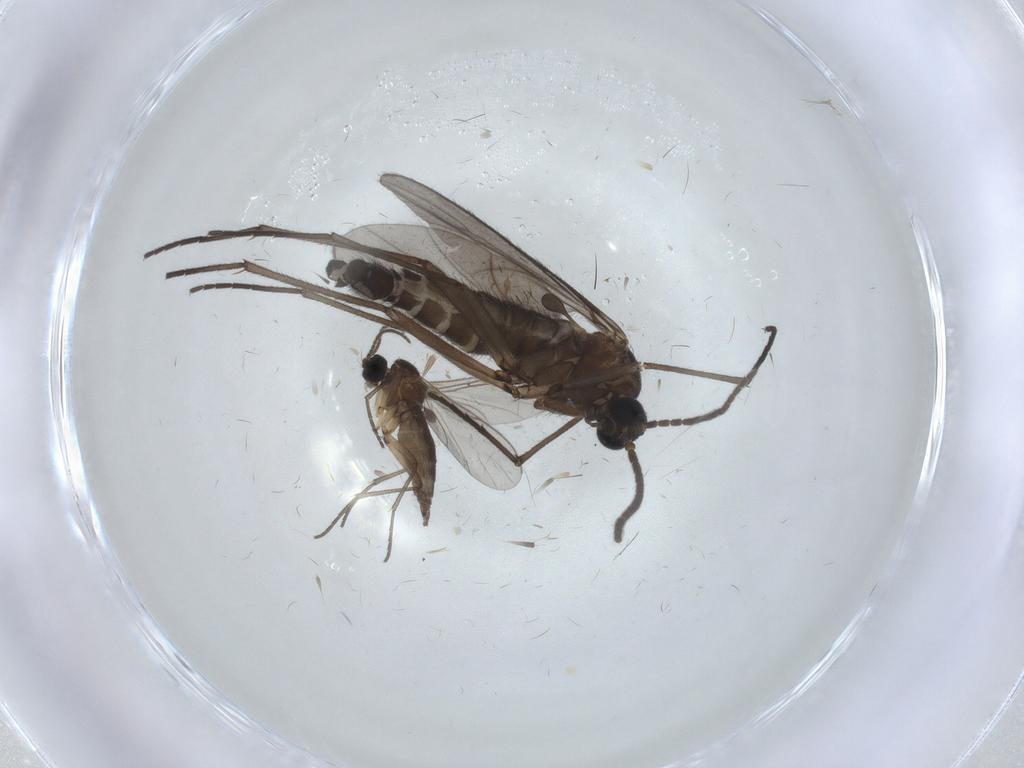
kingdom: Animalia
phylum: Arthropoda
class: Insecta
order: Diptera
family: Sciaridae
